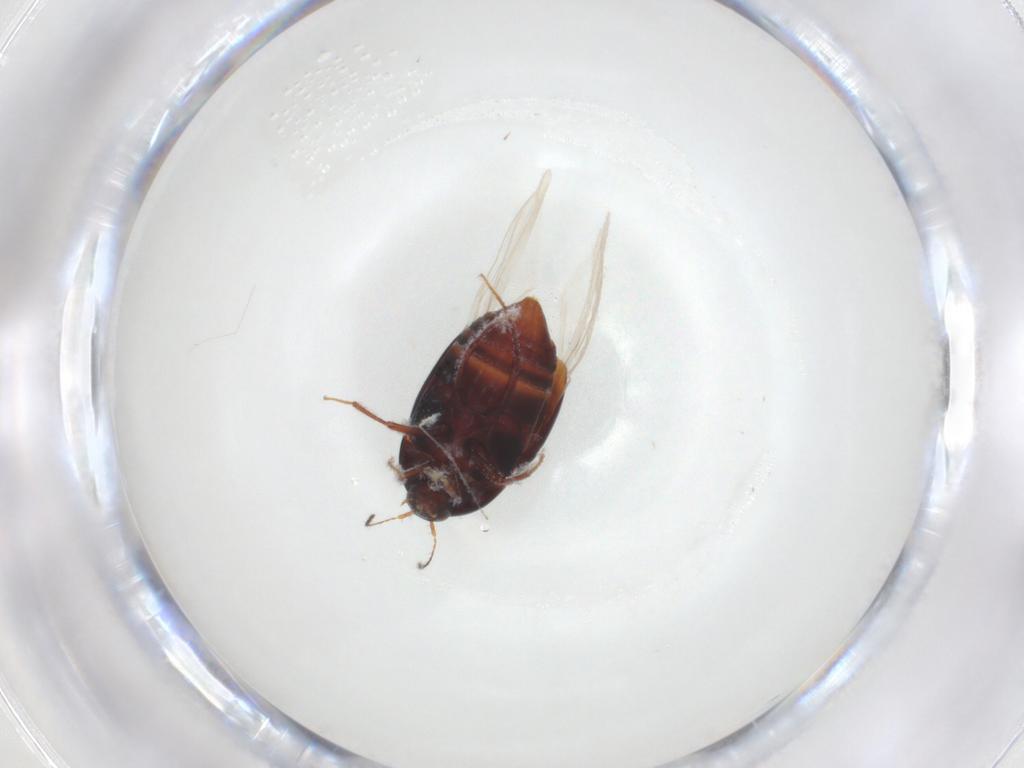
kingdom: Animalia
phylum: Arthropoda
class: Insecta
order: Coleoptera
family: Staphylinidae
